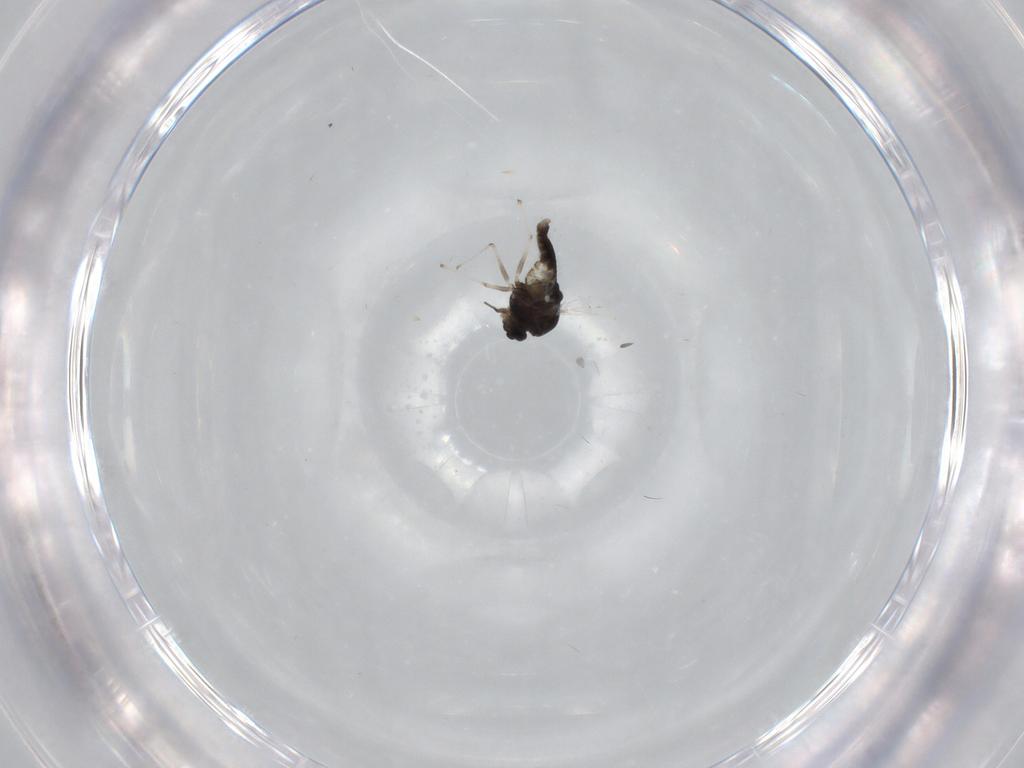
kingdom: Animalia
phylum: Arthropoda
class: Insecta
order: Diptera
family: Chironomidae
